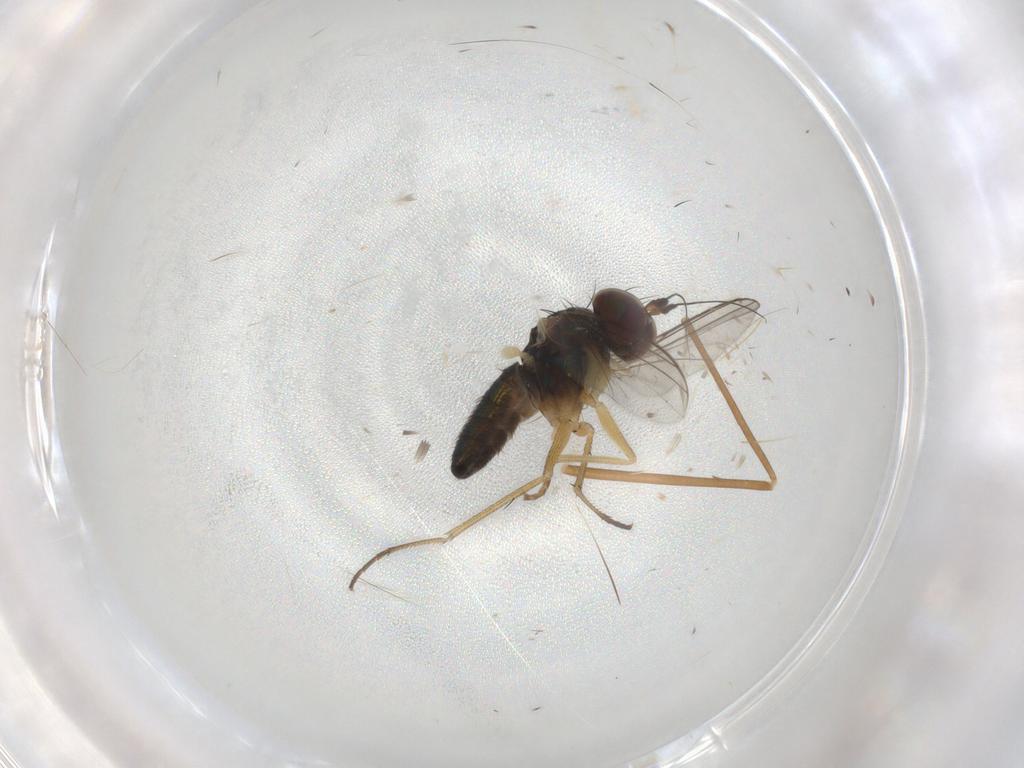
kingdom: Animalia
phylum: Arthropoda
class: Insecta
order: Diptera
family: Dolichopodidae
